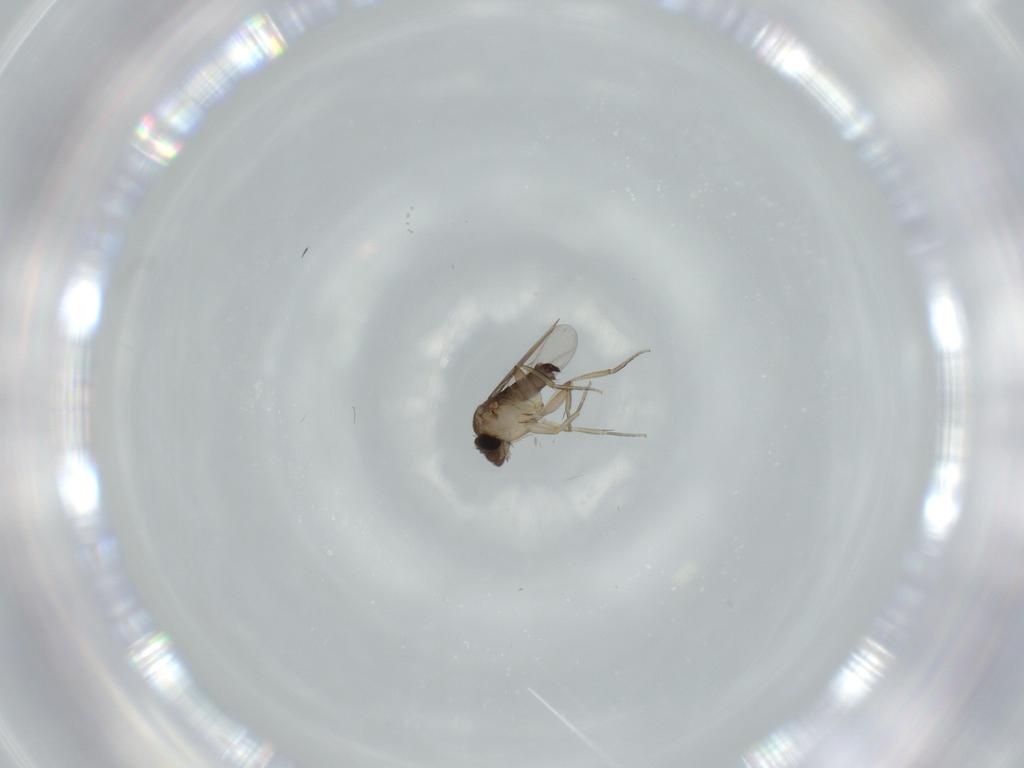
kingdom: Animalia
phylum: Arthropoda
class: Insecta
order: Diptera
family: Phoridae
